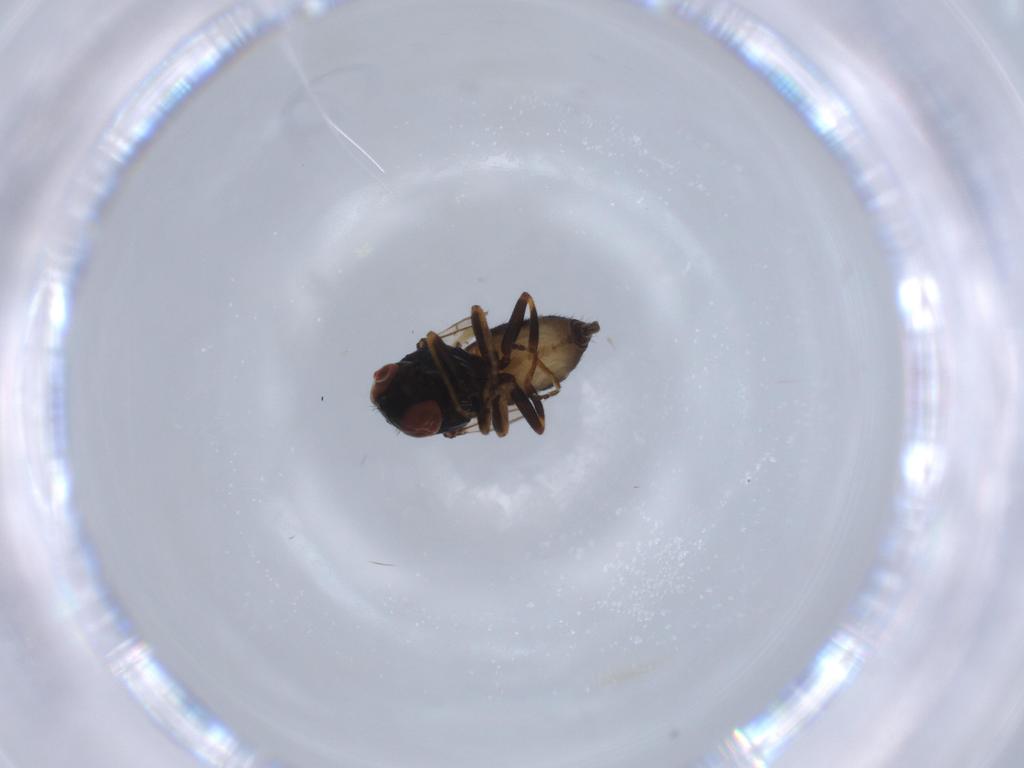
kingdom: Animalia
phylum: Arthropoda
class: Insecta
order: Diptera
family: Chloropidae
